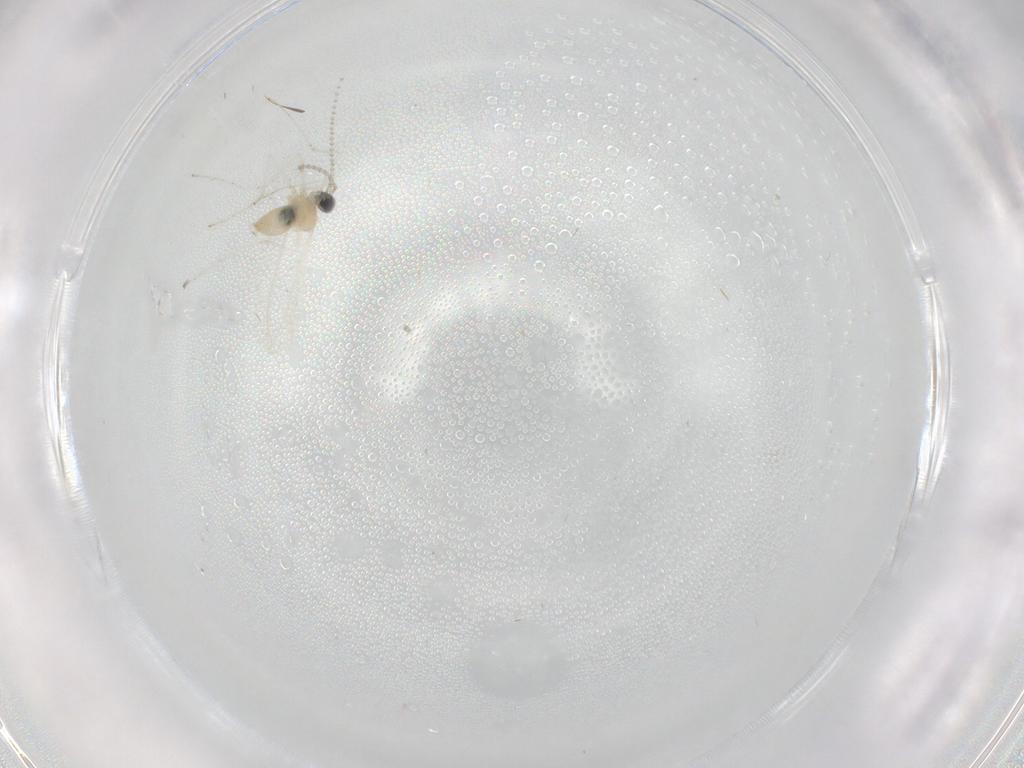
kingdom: Animalia
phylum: Arthropoda
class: Insecta
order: Diptera
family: Cecidomyiidae
